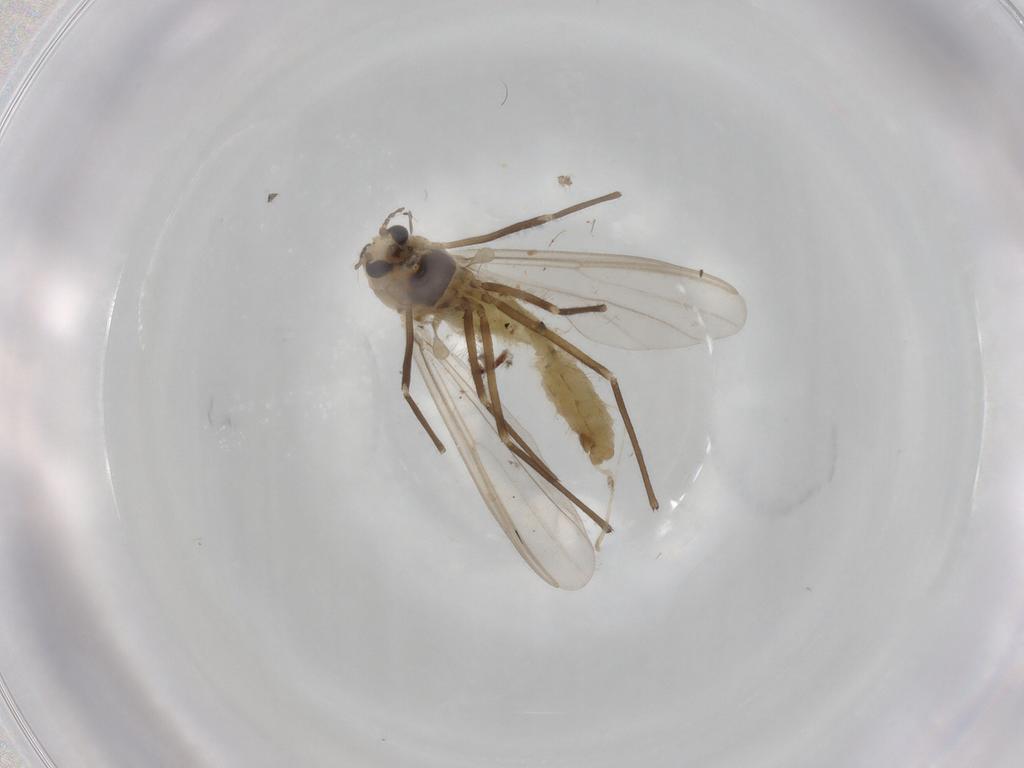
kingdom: Animalia
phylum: Arthropoda
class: Insecta
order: Diptera
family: Chironomidae
